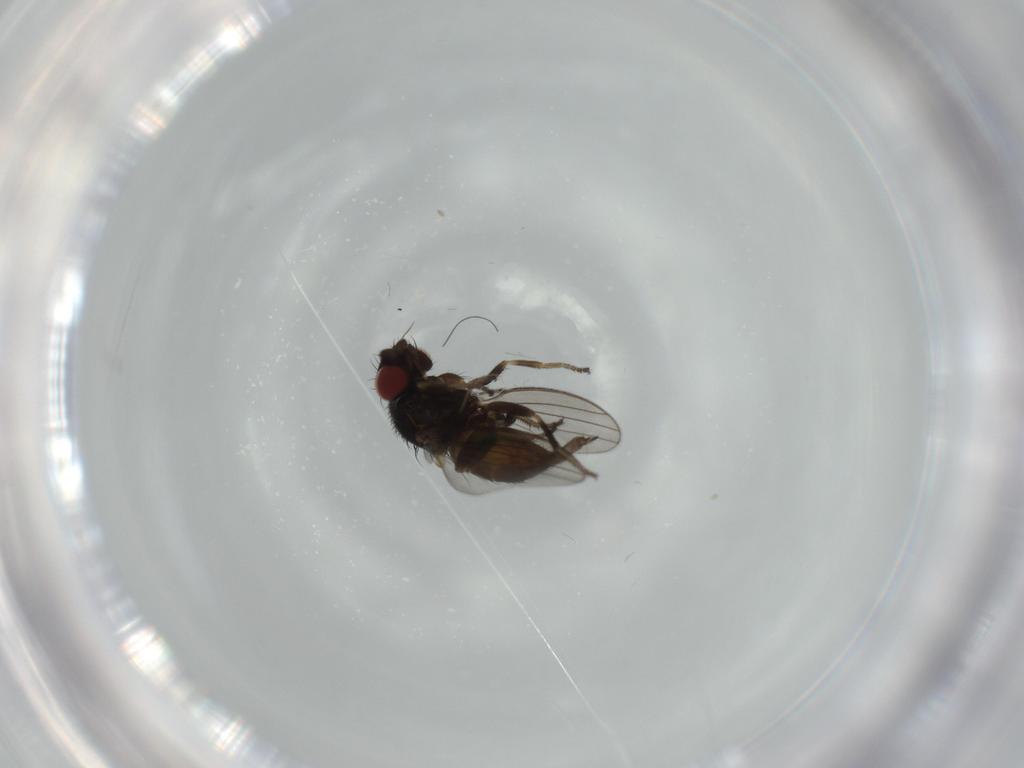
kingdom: Animalia
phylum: Arthropoda
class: Insecta
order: Diptera
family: Milichiidae
